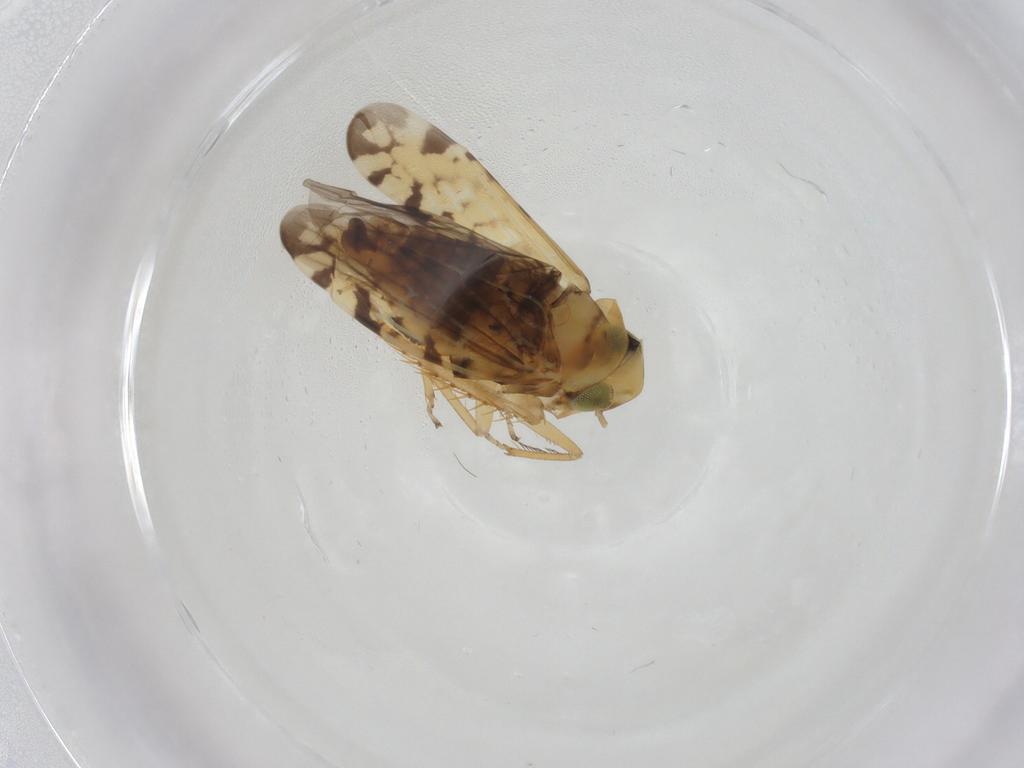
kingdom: Animalia
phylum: Arthropoda
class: Insecta
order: Hemiptera
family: Cicadellidae
